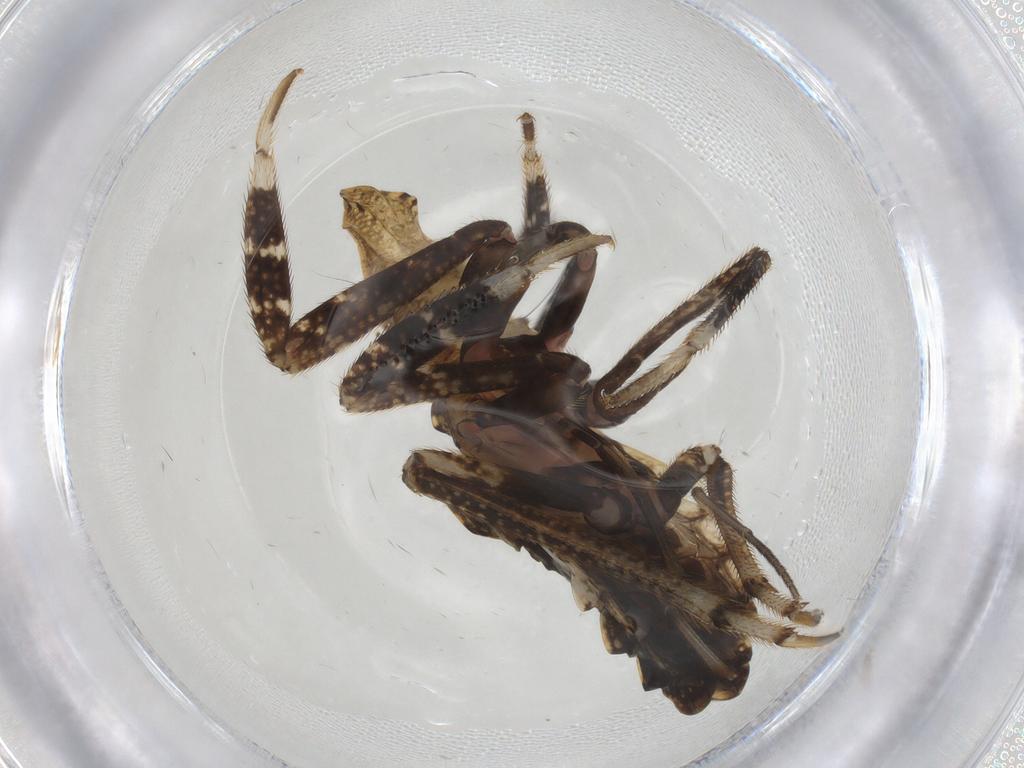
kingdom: Animalia
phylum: Arthropoda
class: Insecta
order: Hemiptera
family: Fulgoridae
